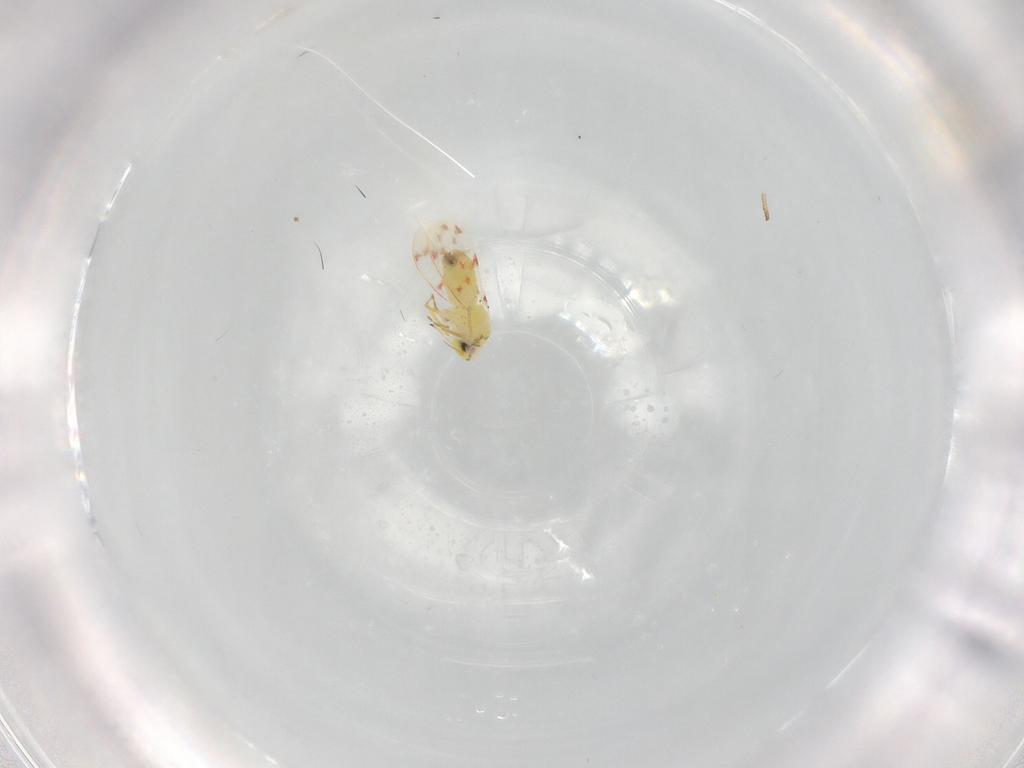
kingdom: Animalia
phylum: Arthropoda
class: Insecta
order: Hemiptera
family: Aleyrodidae
